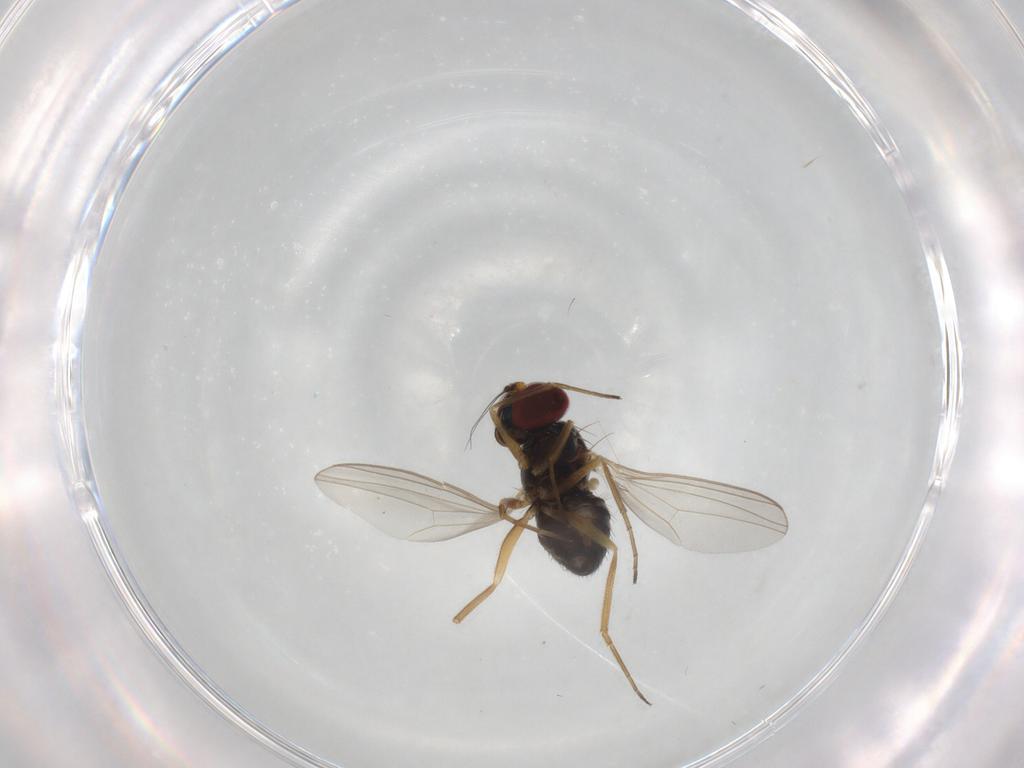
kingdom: Animalia
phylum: Arthropoda
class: Insecta
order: Diptera
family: Dolichopodidae
